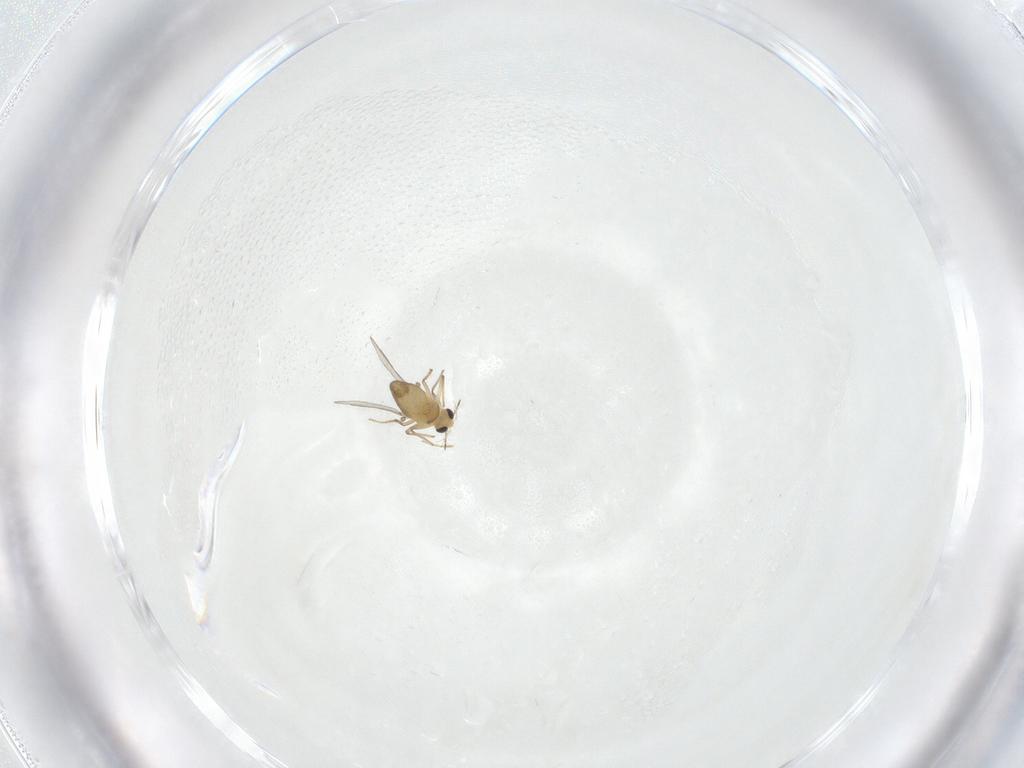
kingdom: Animalia
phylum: Arthropoda
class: Insecta
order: Diptera
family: Chironomidae
